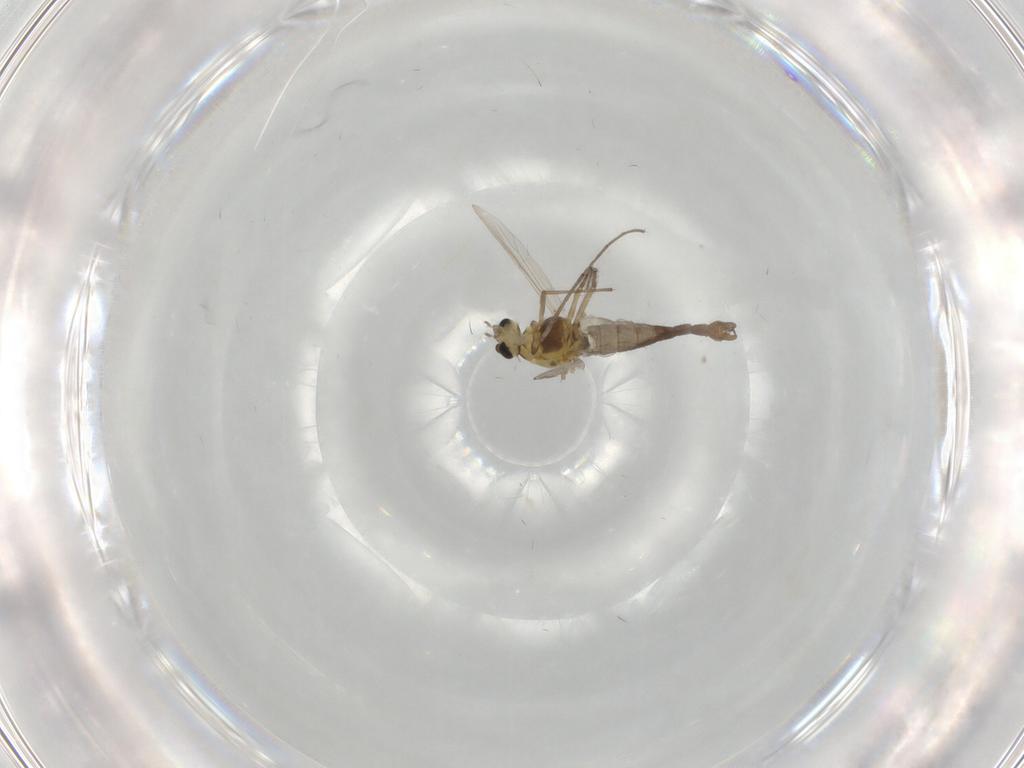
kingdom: Animalia
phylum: Arthropoda
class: Insecta
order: Diptera
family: Chironomidae
